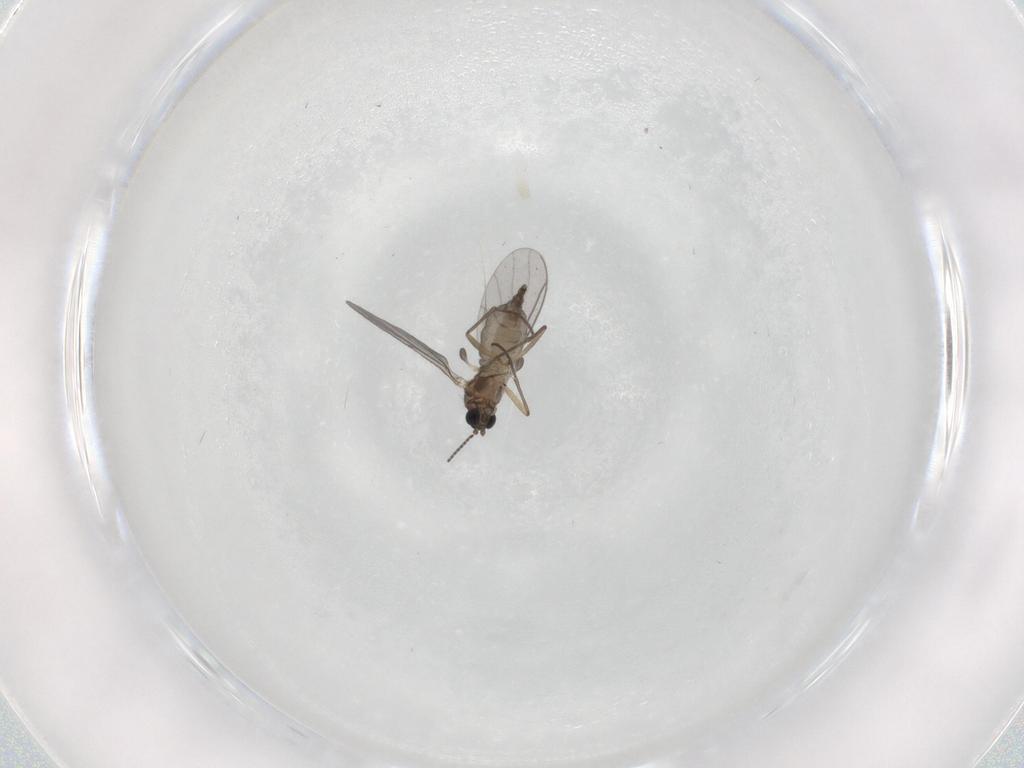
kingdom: Animalia
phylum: Arthropoda
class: Insecta
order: Diptera
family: Sciaridae
